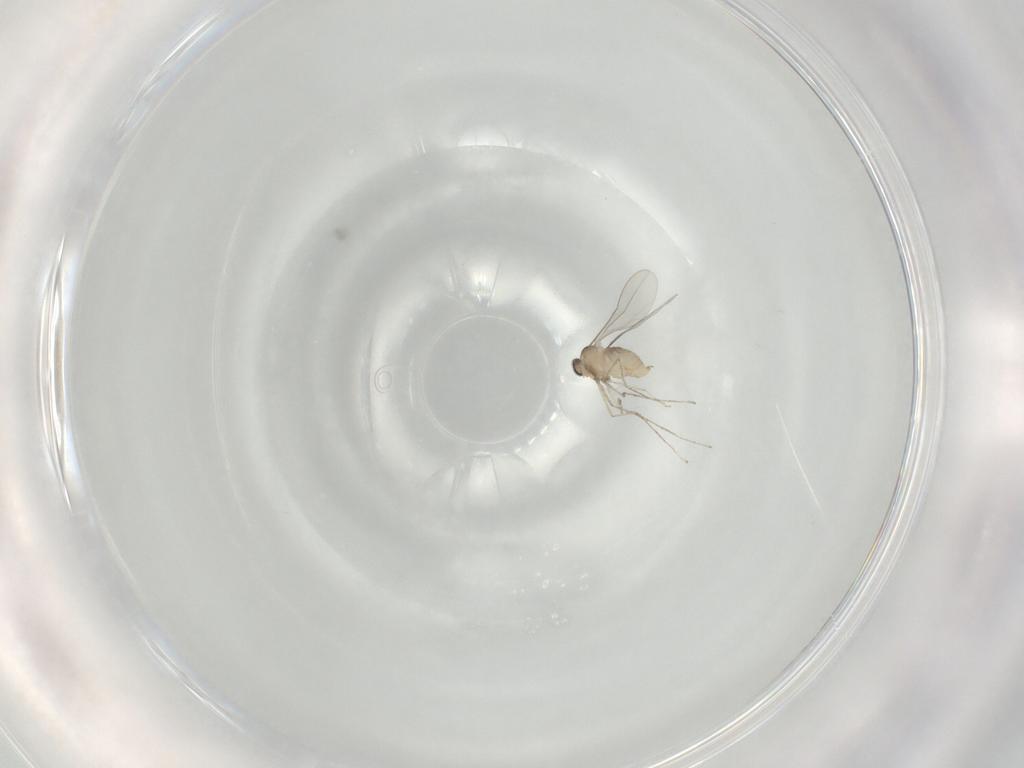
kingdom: Animalia
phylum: Arthropoda
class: Insecta
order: Diptera
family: Cecidomyiidae
